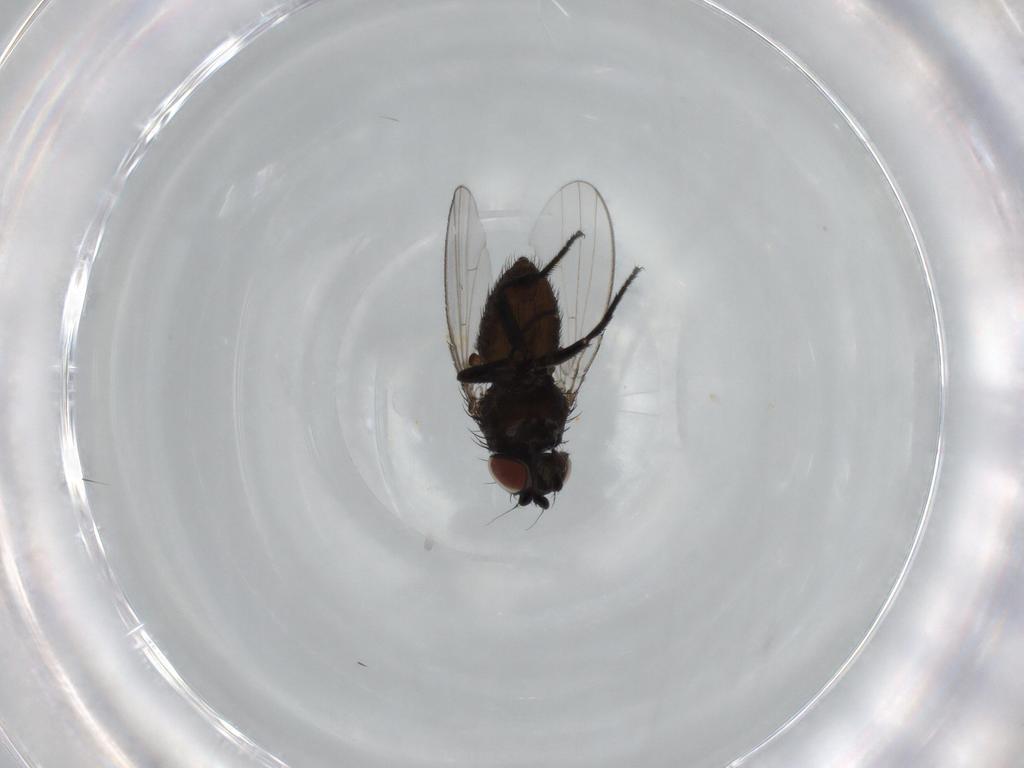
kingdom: Animalia
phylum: Arthropoda
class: Insecta
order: Diptera
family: Milichiidae
